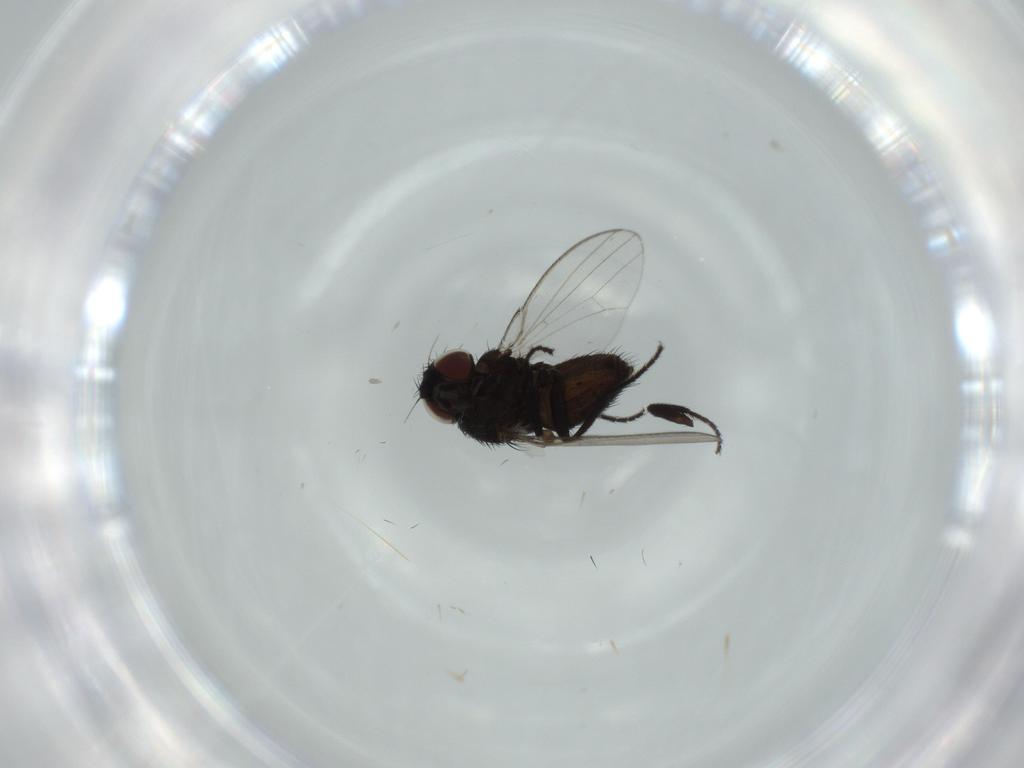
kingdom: Animalia
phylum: Arthropoda
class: Insecta
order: Diptera
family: Milichiidae
